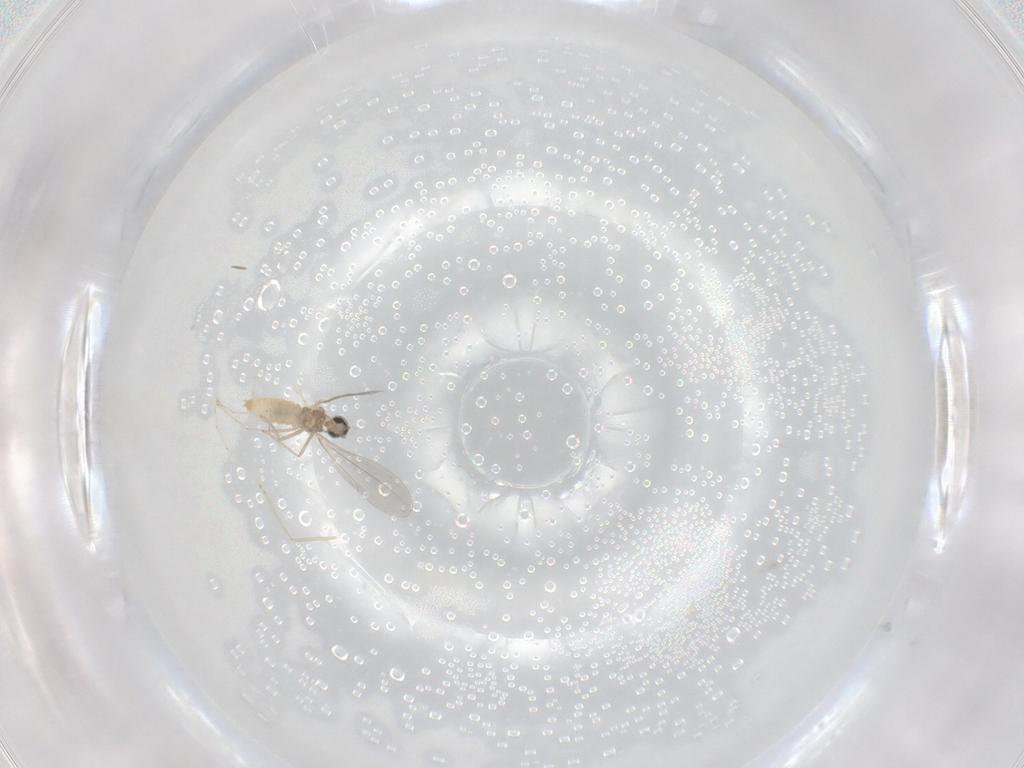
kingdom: Animalia
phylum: Arthropoda
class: Insecta
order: Diptera
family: Cecidomyiidae
